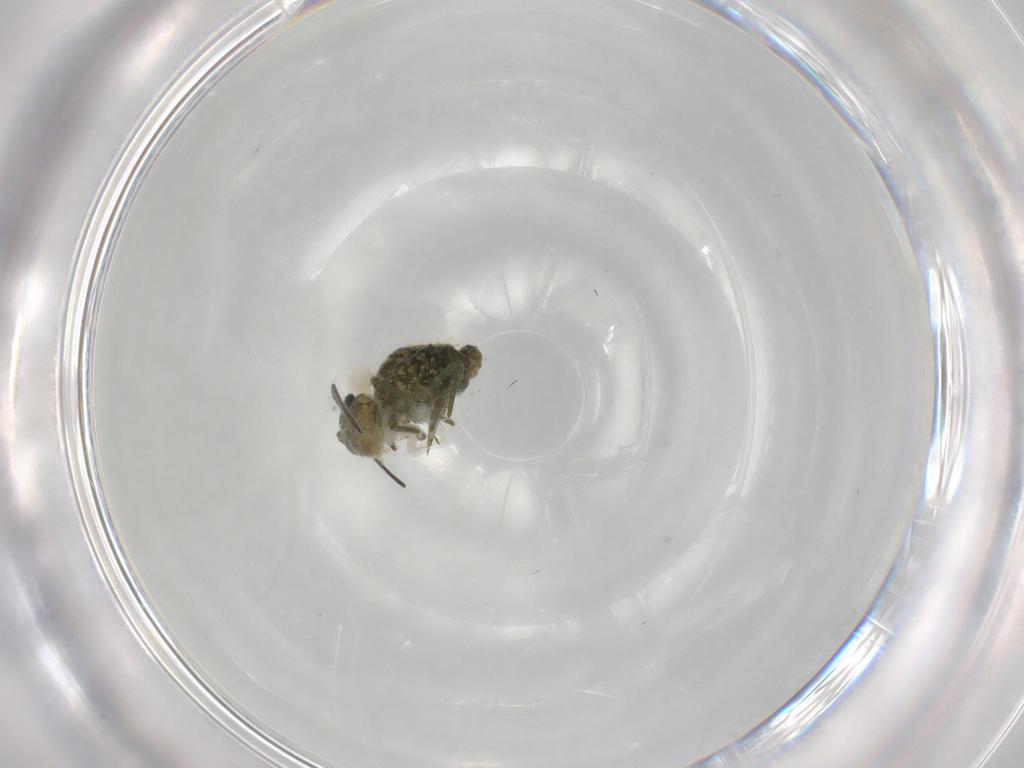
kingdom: Animalia
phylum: Arthropoda
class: Collembola
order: Symphypleona
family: Sminthuridae
